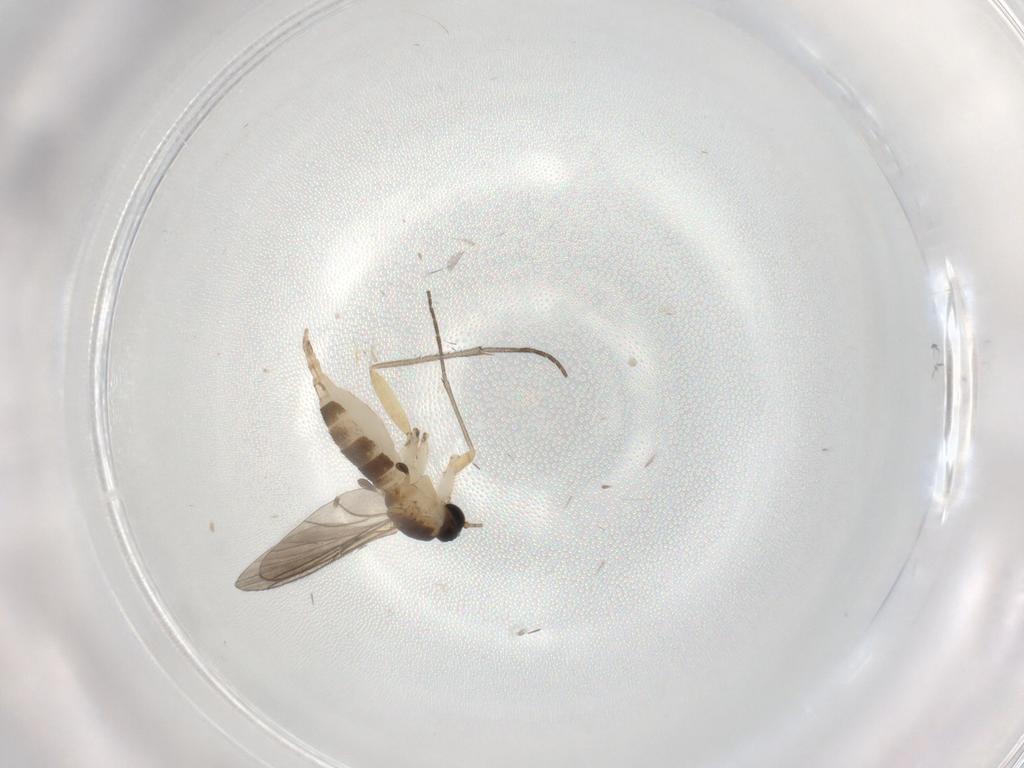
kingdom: Animalia
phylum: Arthropoda
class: Insecta
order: Diptera
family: Sciaridae
